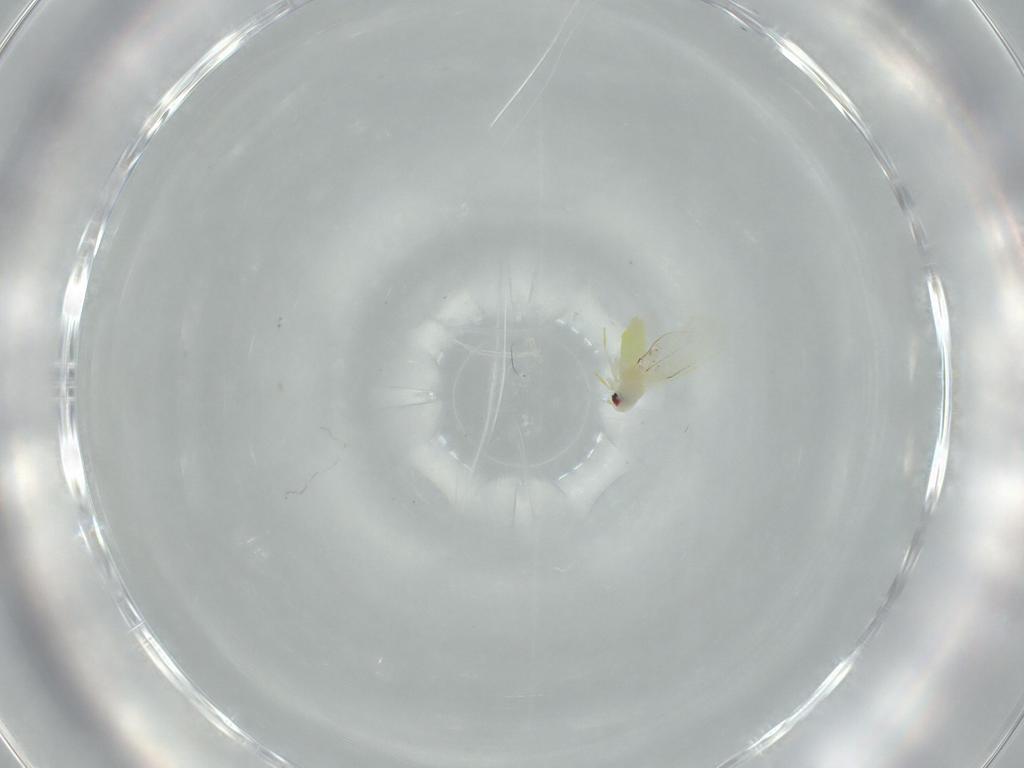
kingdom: Animalia
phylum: Arthropoda
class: Insecta
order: Hemiptera
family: Aleyrodidae
